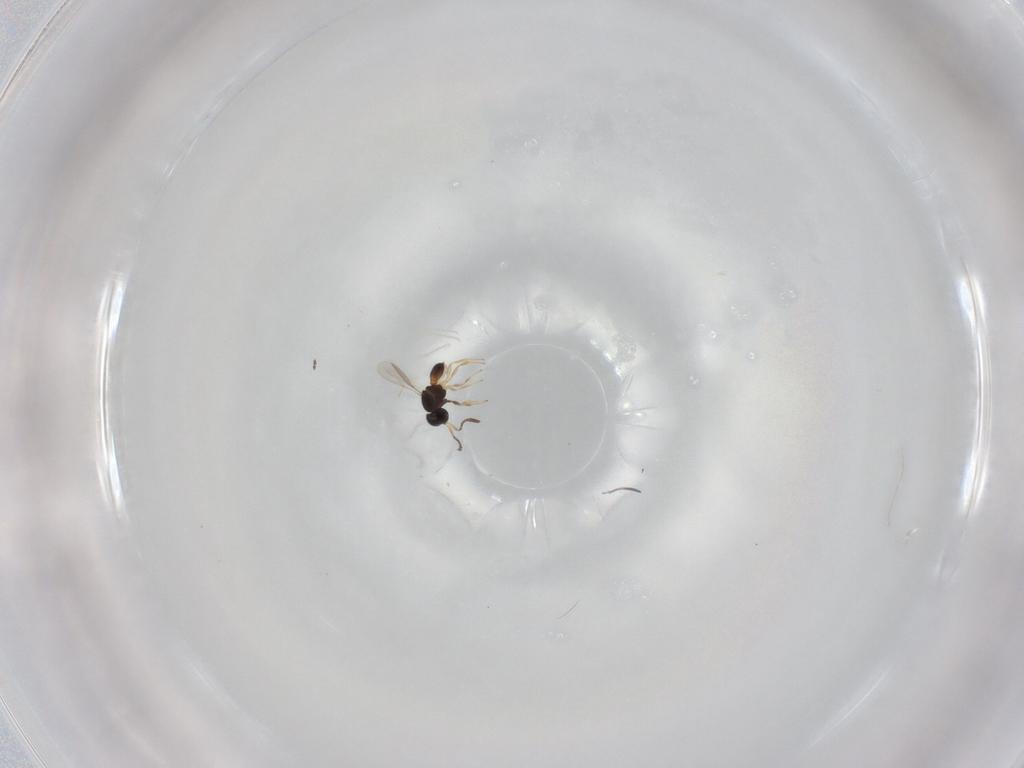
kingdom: Animalia
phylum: Arthropoda
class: Insecta
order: Hymenoptera
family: Scelionidae
